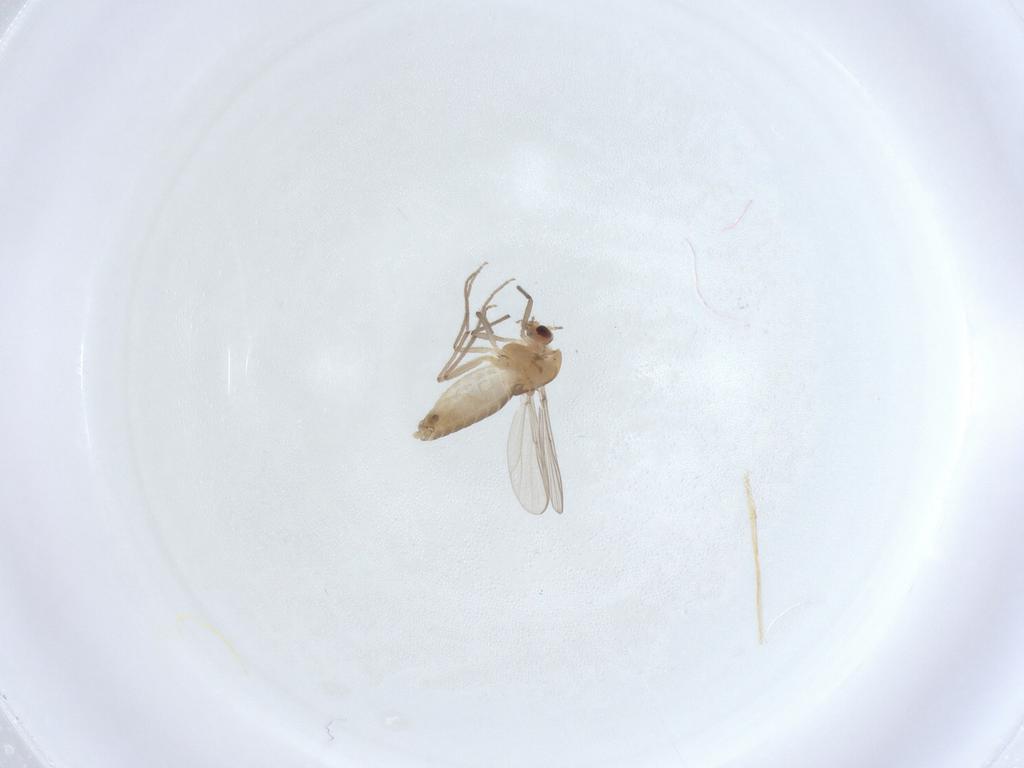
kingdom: Animalia
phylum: Arthropoda
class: Insecta
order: Diptera
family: Chironomidae
